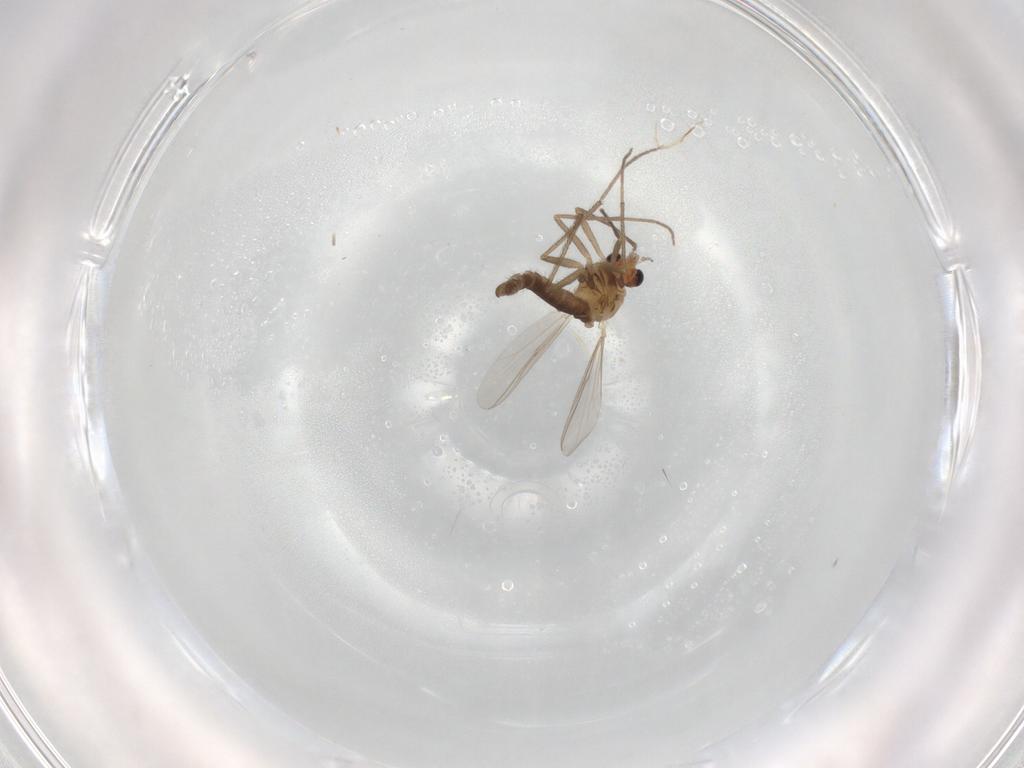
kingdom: Animalia
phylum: Arthropoda
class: Insecta
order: Diptera
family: Chironomidae
